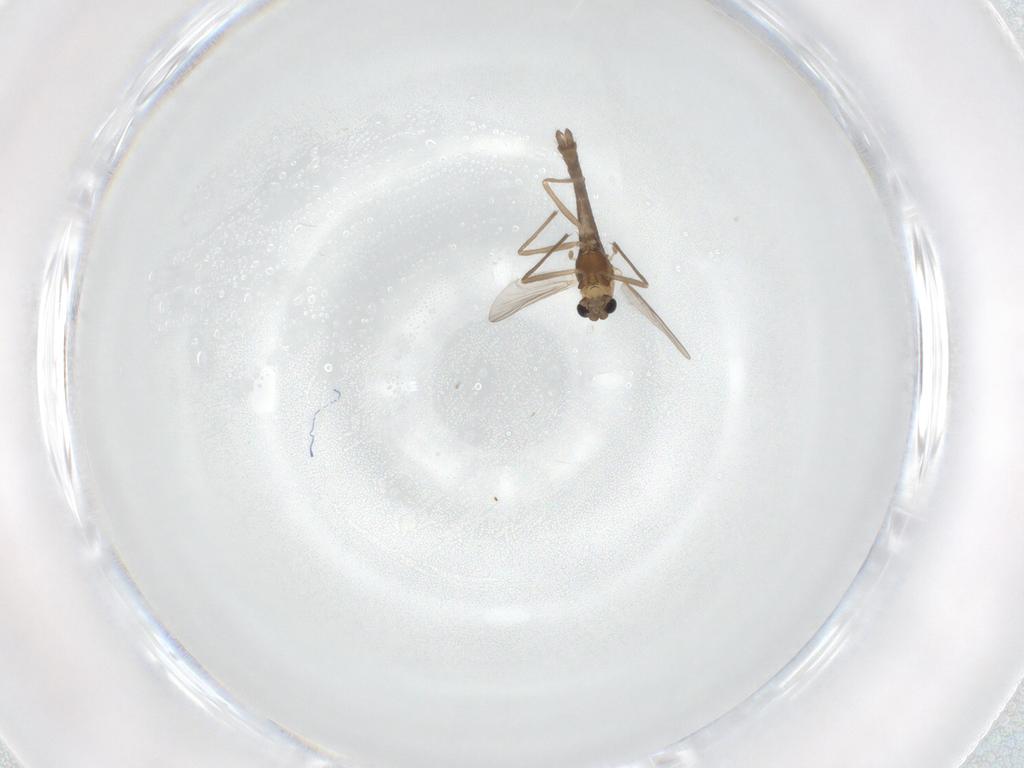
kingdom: Animalia
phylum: Arthropoda
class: Insecta
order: Diptera
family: Chironomidae
